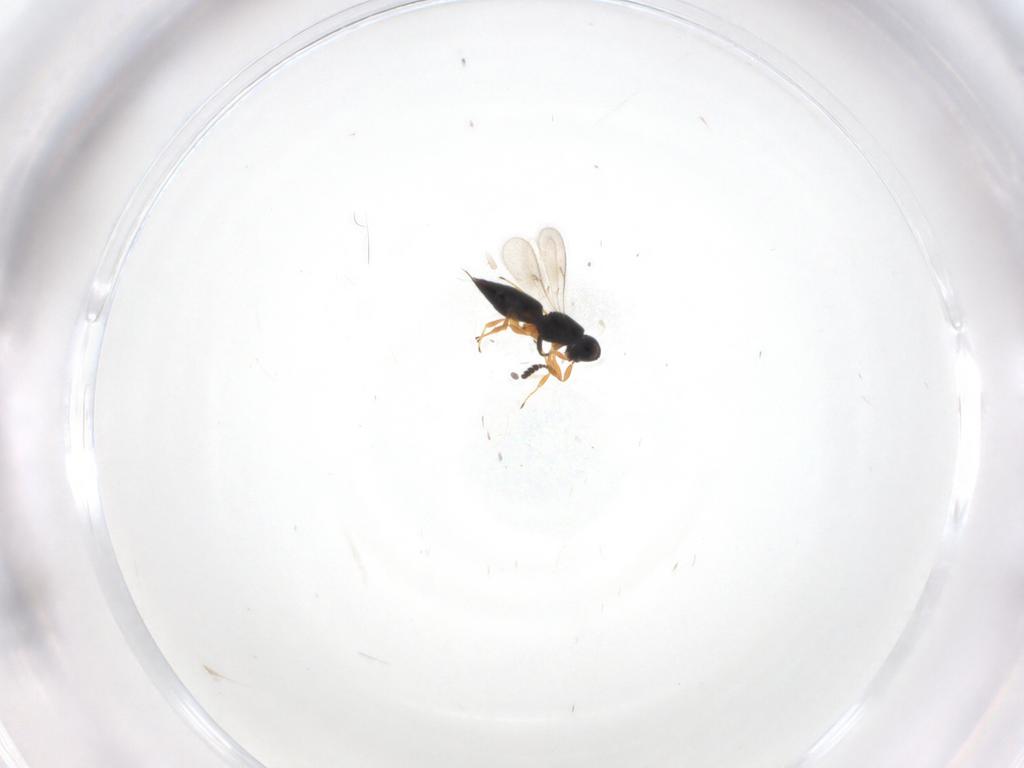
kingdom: Animalia
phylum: Arthropoda
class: Insecta
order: Hymenoptera
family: Scelionidae
